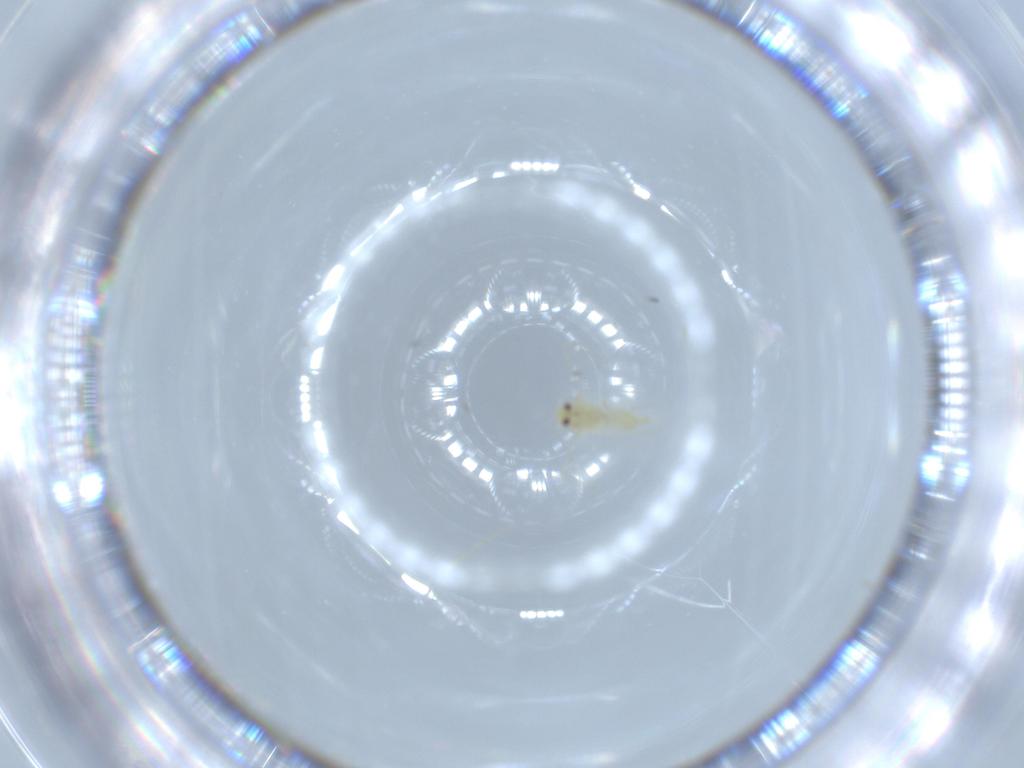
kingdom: Animalia
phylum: Arthropoda
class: Insecta
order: Hemiptera
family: Aleyrodidae
